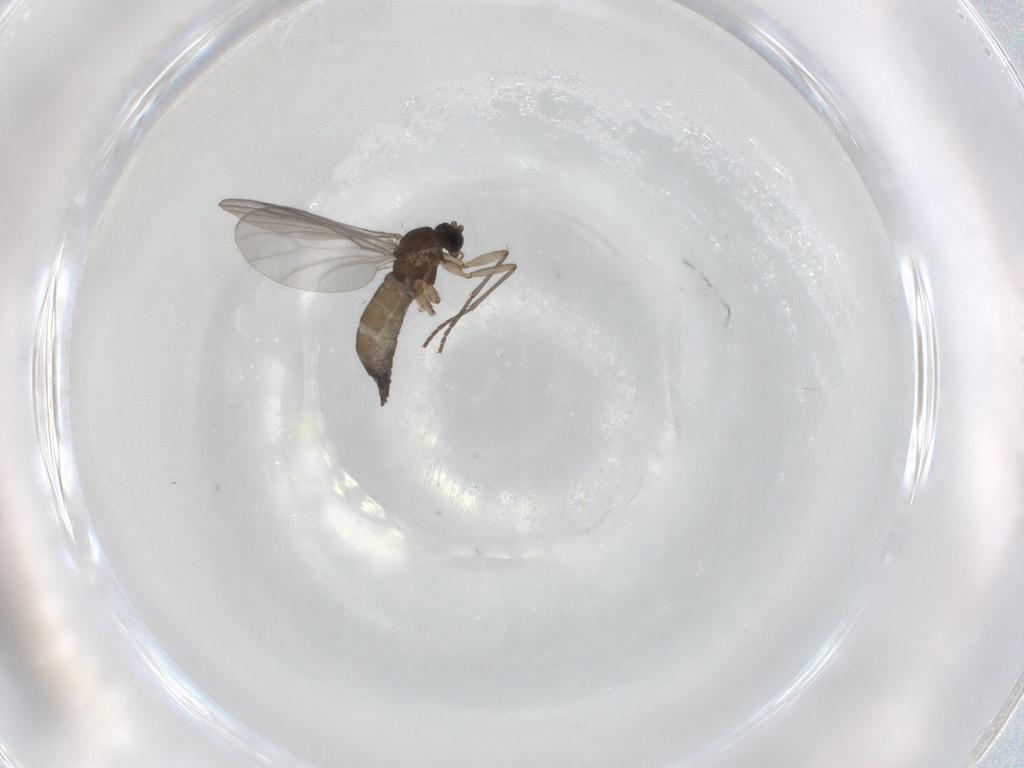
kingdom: Animalia
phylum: Arthropoda
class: Insecta
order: Diptera
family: Sciaridae
